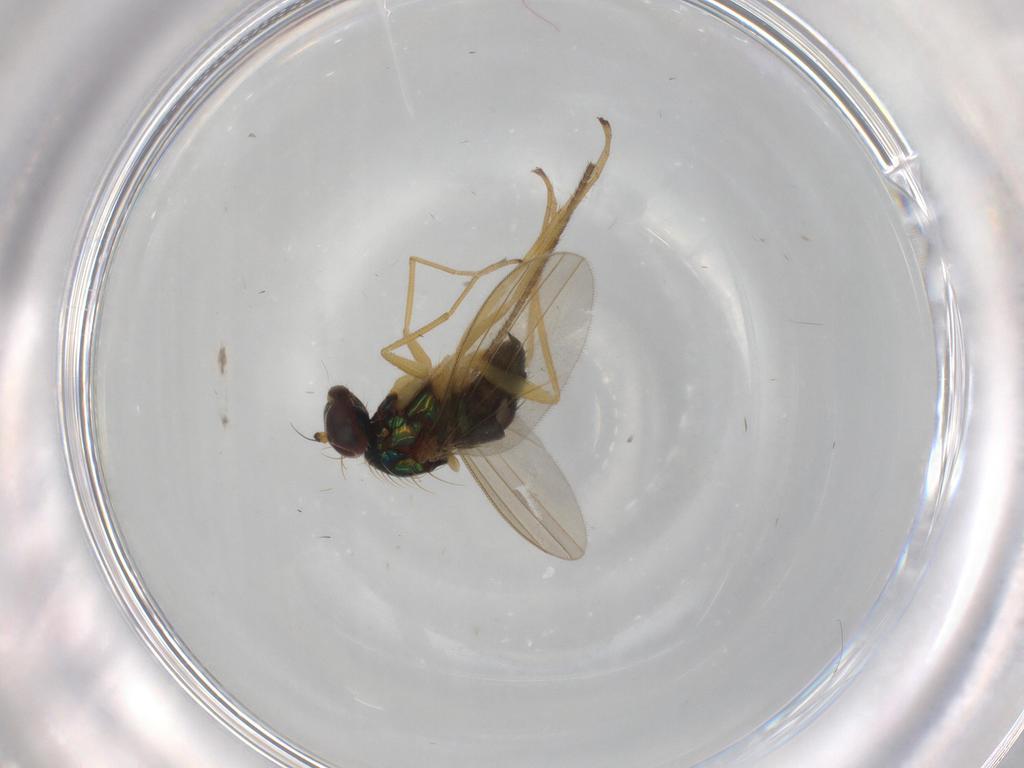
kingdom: Animalia
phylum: Arthropoda
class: Insecta
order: Diptera
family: Dolichopodidae
